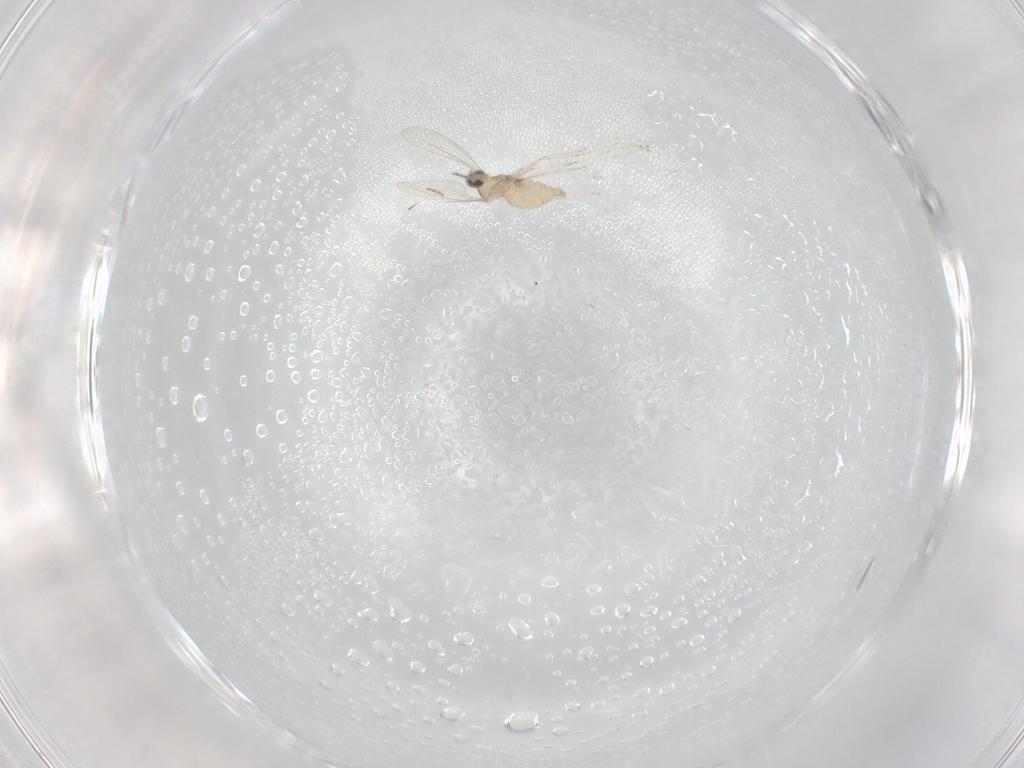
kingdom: Animalia
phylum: Arthropoda
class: Insecta
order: Diptera
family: Cecidomyiidae
